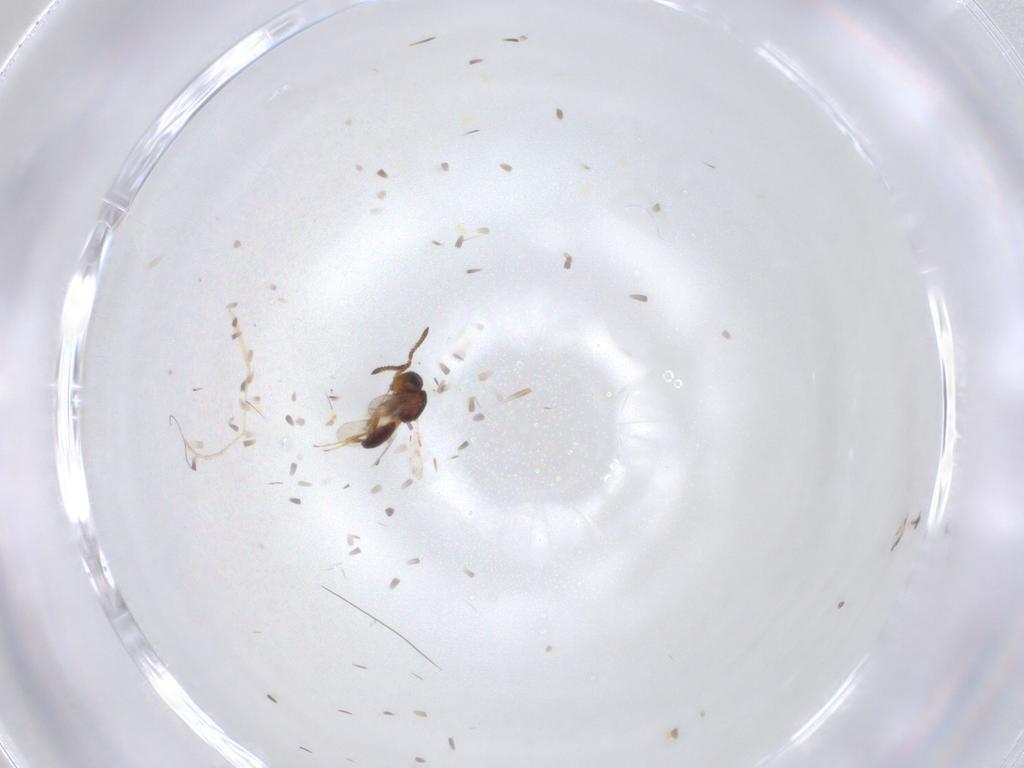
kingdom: Animalia
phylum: Arthropoda
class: Insecta
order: Hymenoptera
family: Scelionidae
